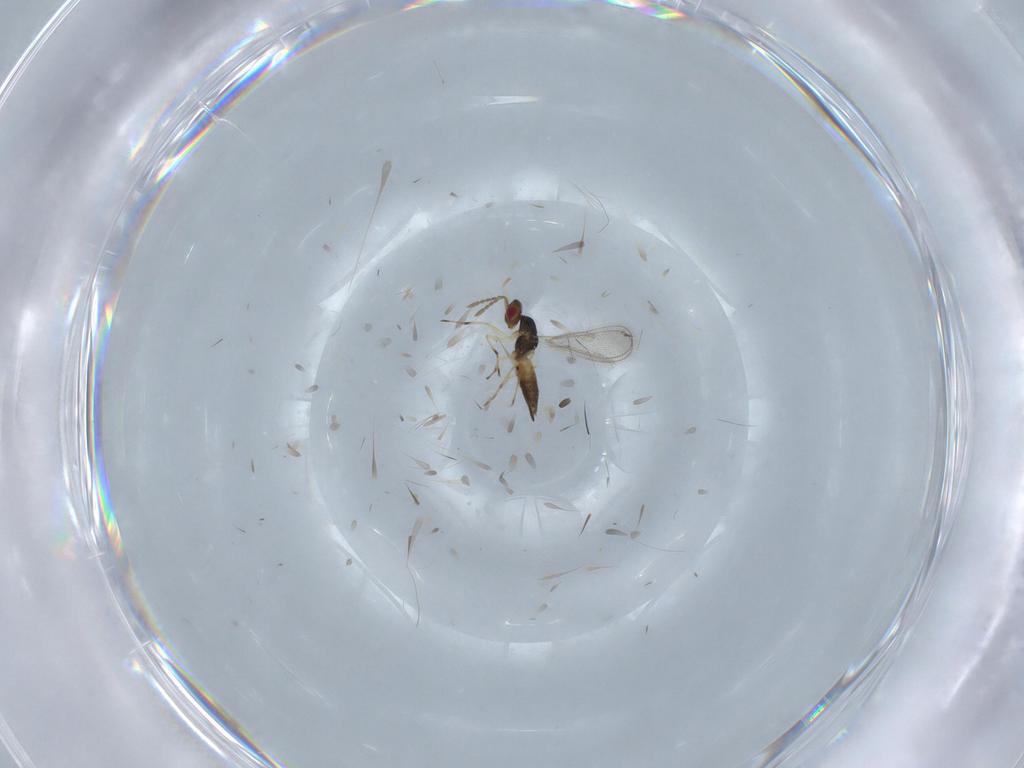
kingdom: Animalia
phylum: Arthropoda
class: Insecta
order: Hymenoptera
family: Eulophidae
